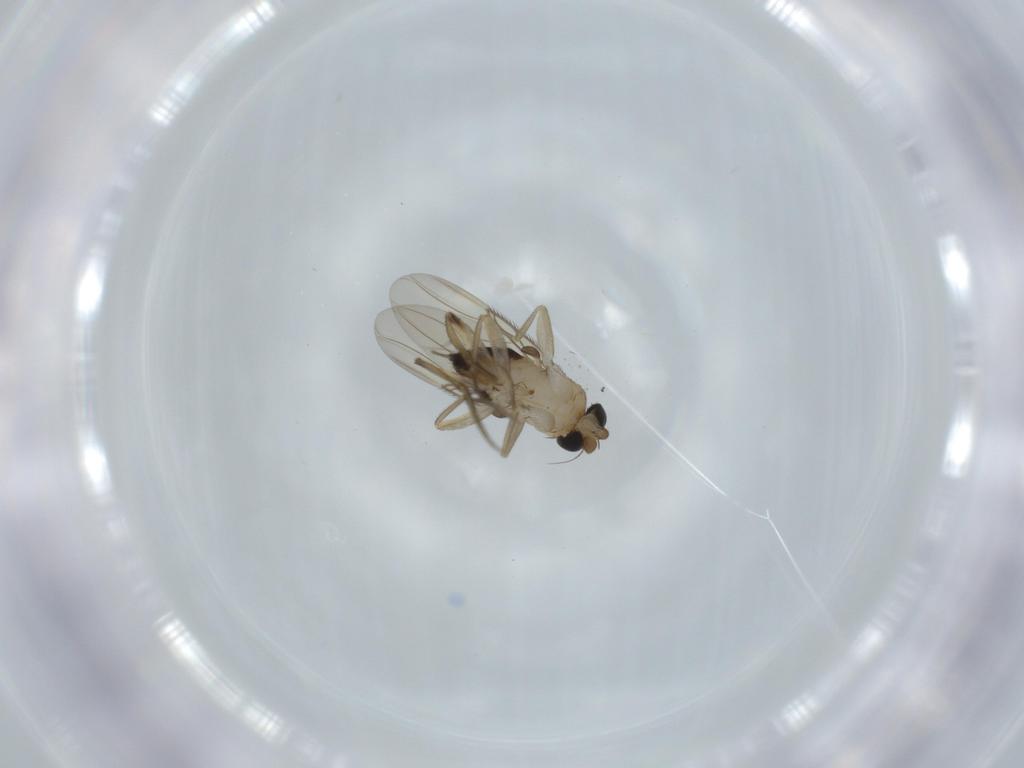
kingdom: Animalia
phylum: Arthropoda
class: Insecta
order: Diptera
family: Phoridae
